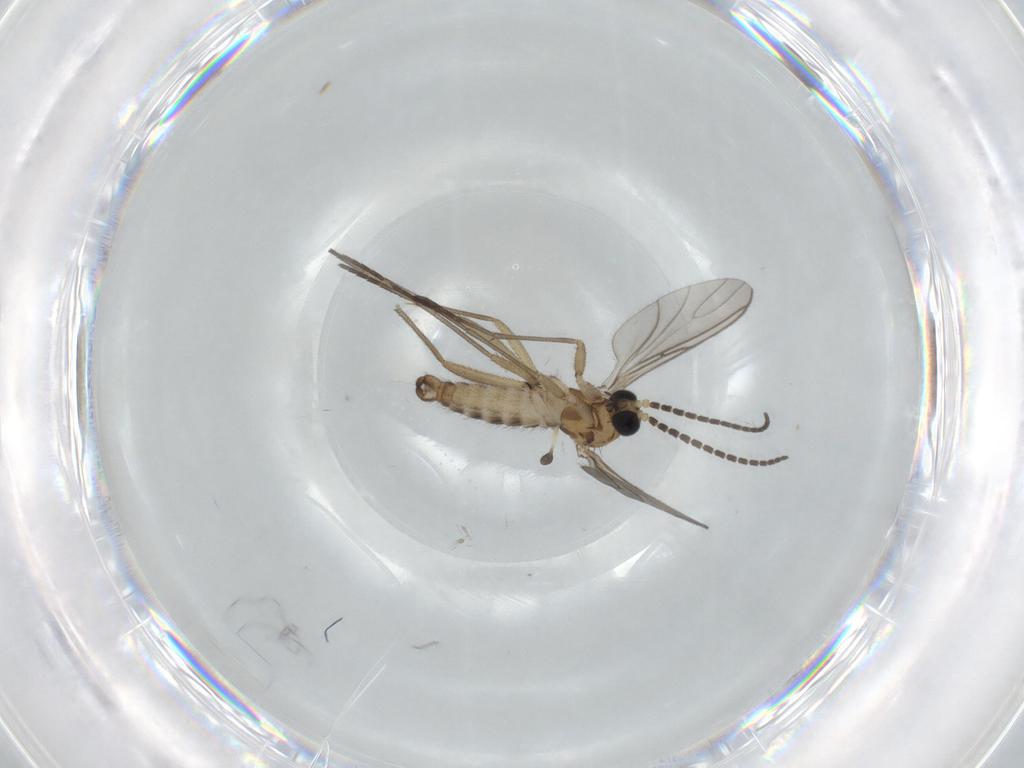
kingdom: Animalia
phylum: Arthropoda
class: Insecta
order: Diptera
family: Sciaridae
